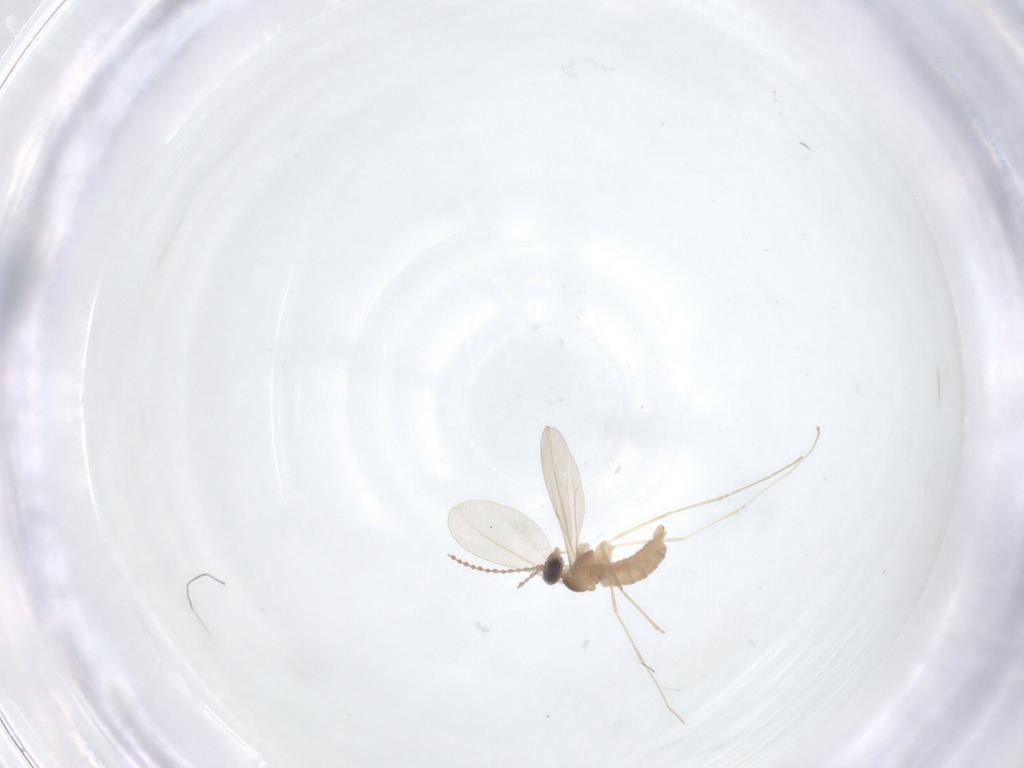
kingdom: Animalia
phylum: Arthropoda
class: Insecta
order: Diptera
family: Cecidomyiidae
